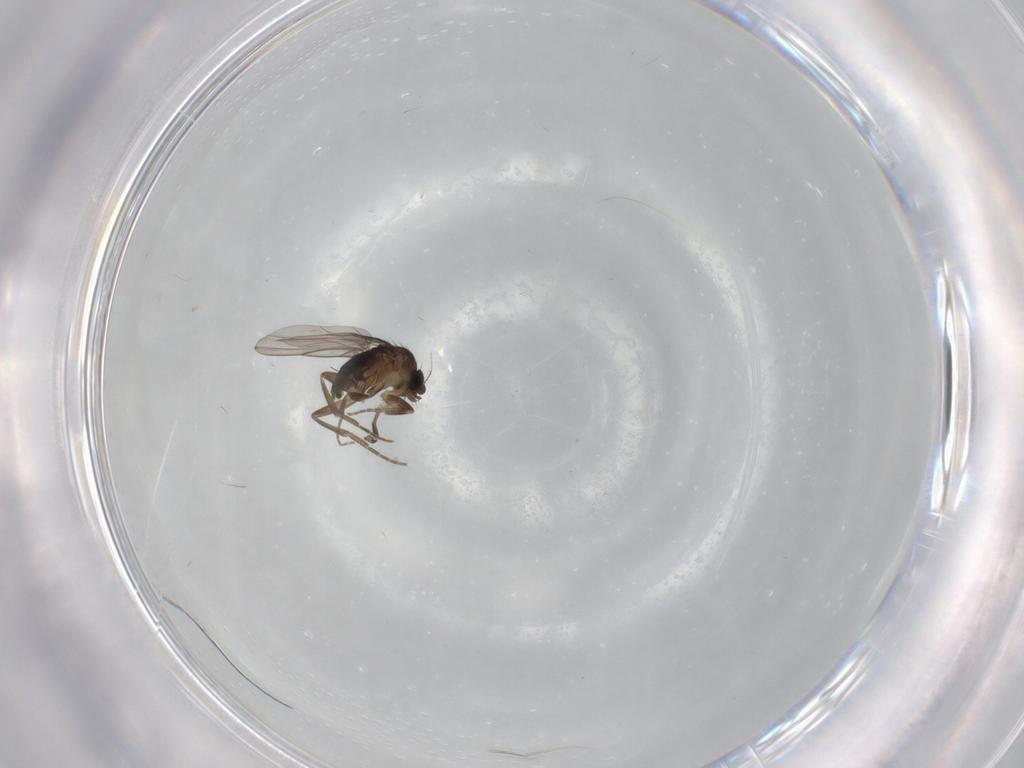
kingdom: Animalia
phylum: Arthropoda
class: Insecta
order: Diptera
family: Phoridae
